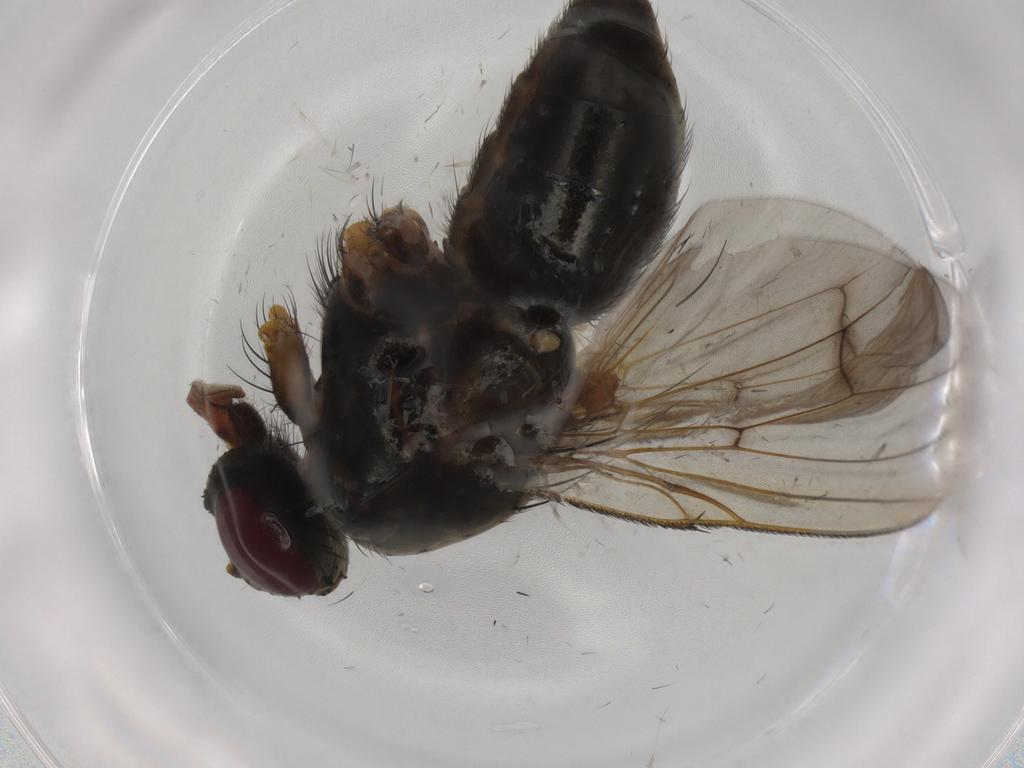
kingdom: Animalia
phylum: Arthropoda
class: Insecta
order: Diptera
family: Muscidae
